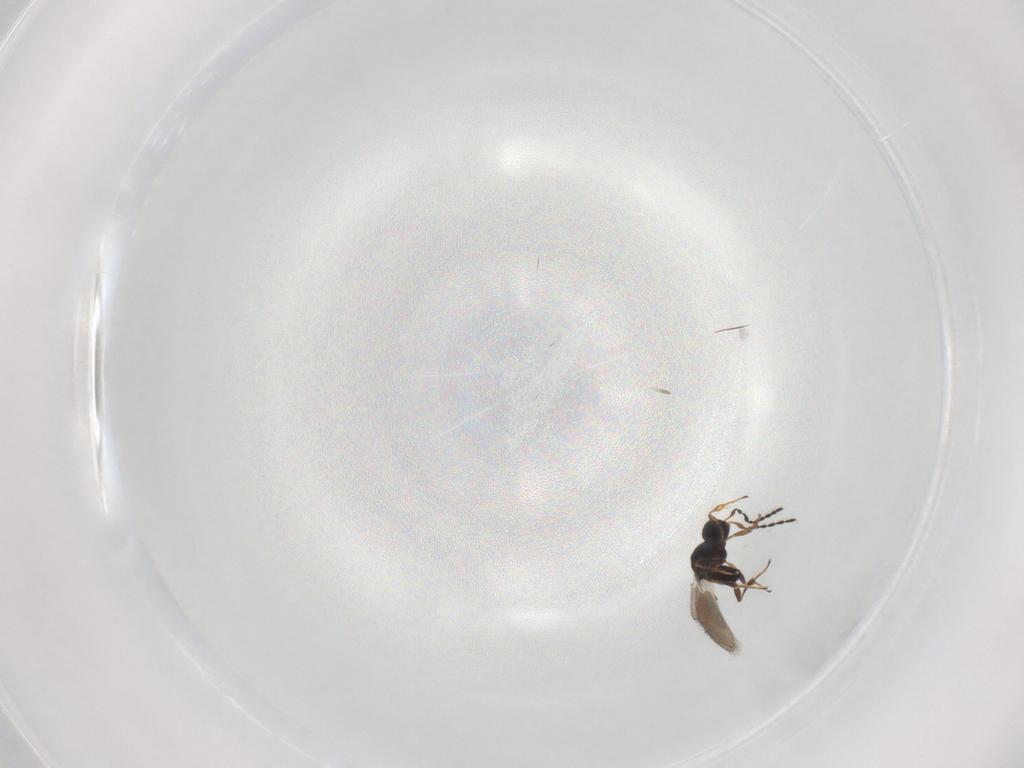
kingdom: Animalia
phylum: Arthropoda
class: Insecta
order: Hymenoptera
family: Platygastridae
